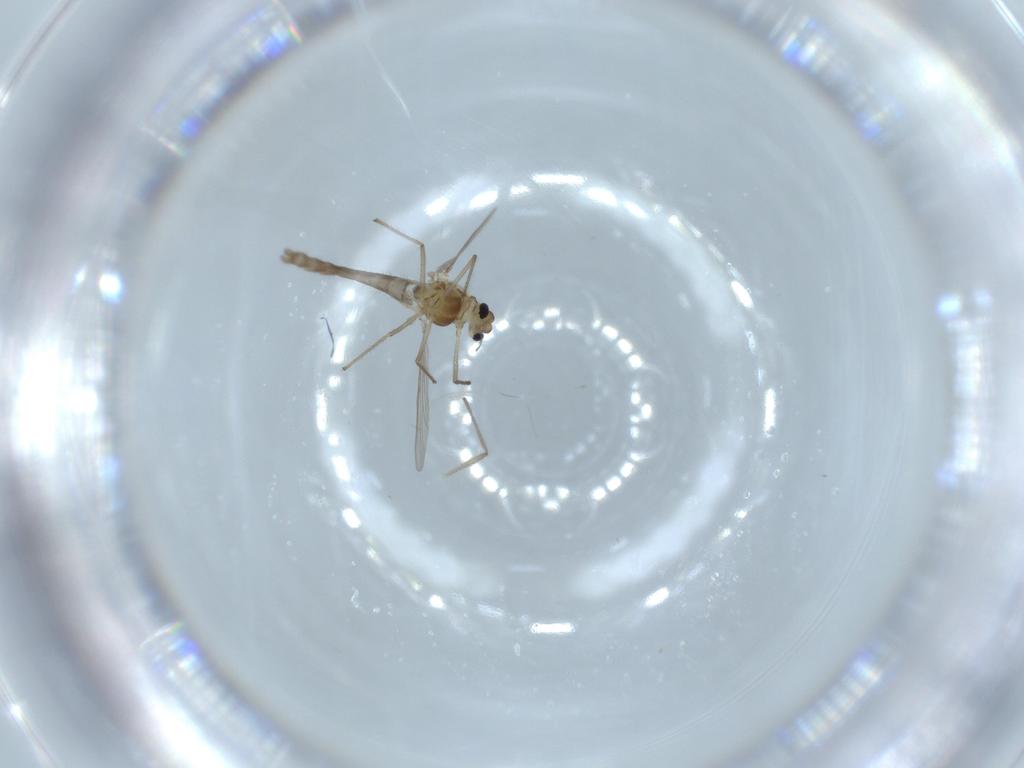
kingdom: Animalia
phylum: Arthropoda
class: Insecta
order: Diptera
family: Chironomidae
